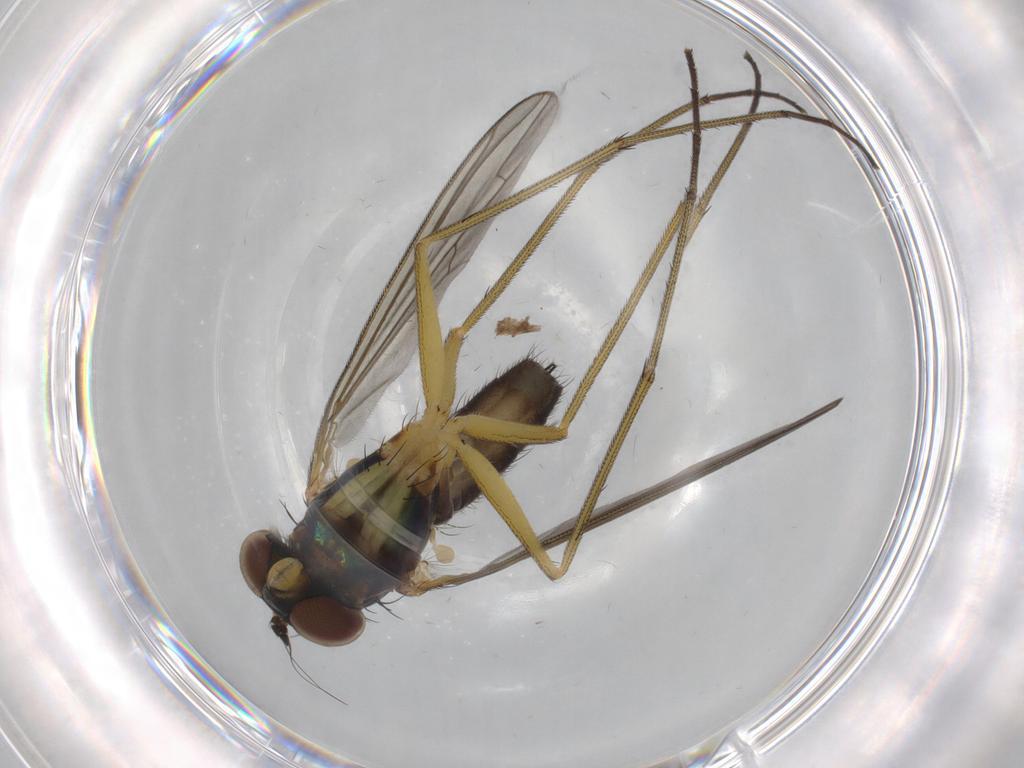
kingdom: Animalia
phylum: Arthropoda
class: Insecta
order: Diptera
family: Dolichopodidae
